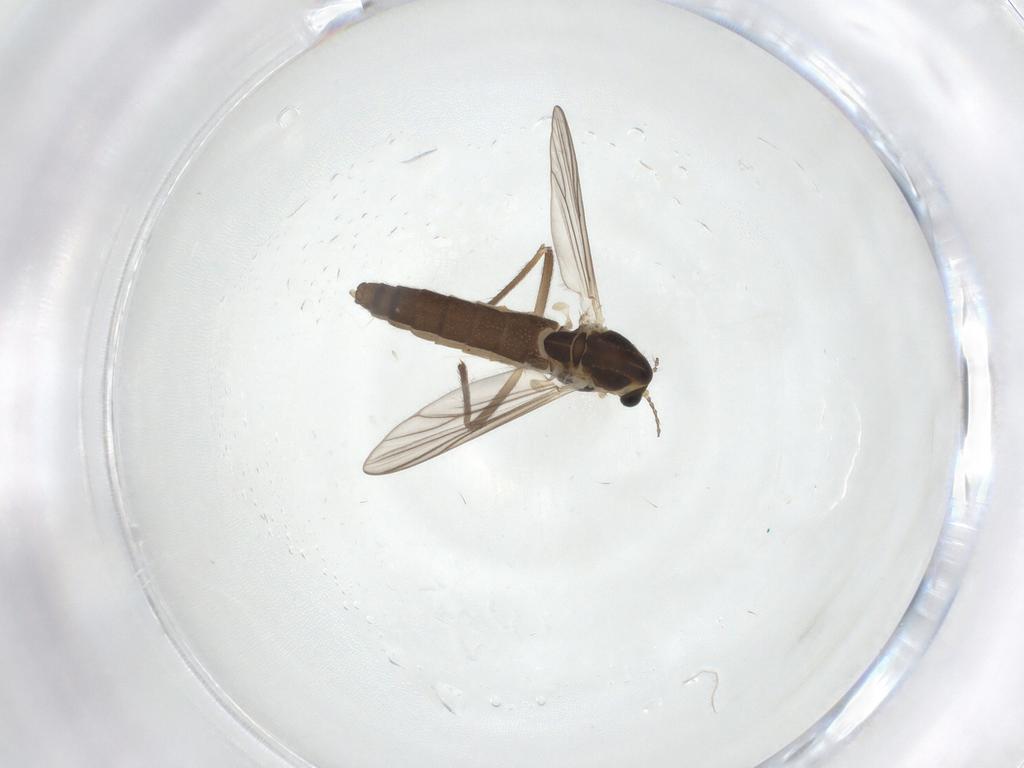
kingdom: Animalia
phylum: Arthropoda
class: Insecta
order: Diptera
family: Chironomidae
